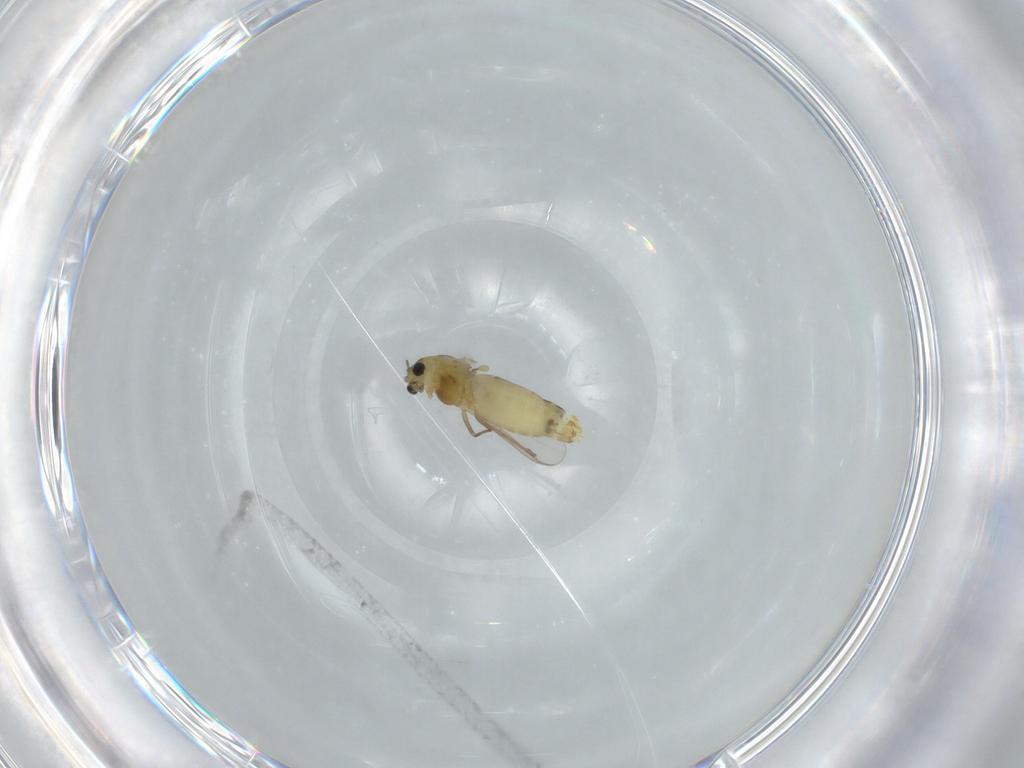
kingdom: Animalia
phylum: Arthropoda
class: Insecta
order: Diptera
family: Chironomidae
